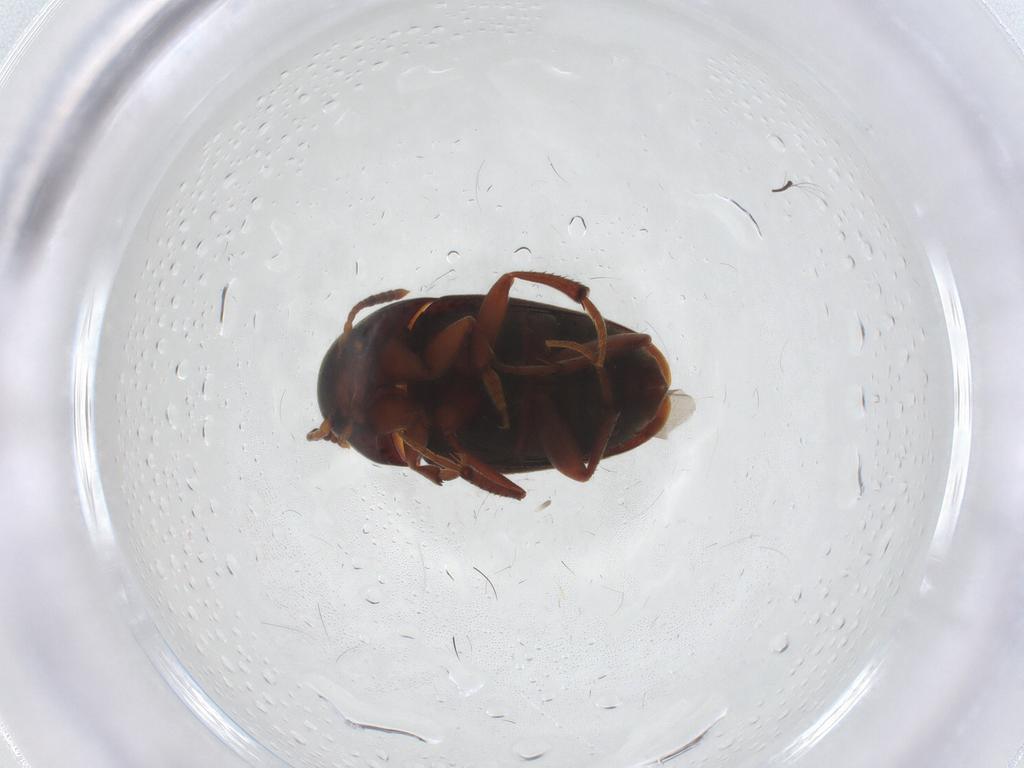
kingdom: Animalia
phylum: Arthropoda
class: Insecta
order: Coleoptera
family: Leiodidae
